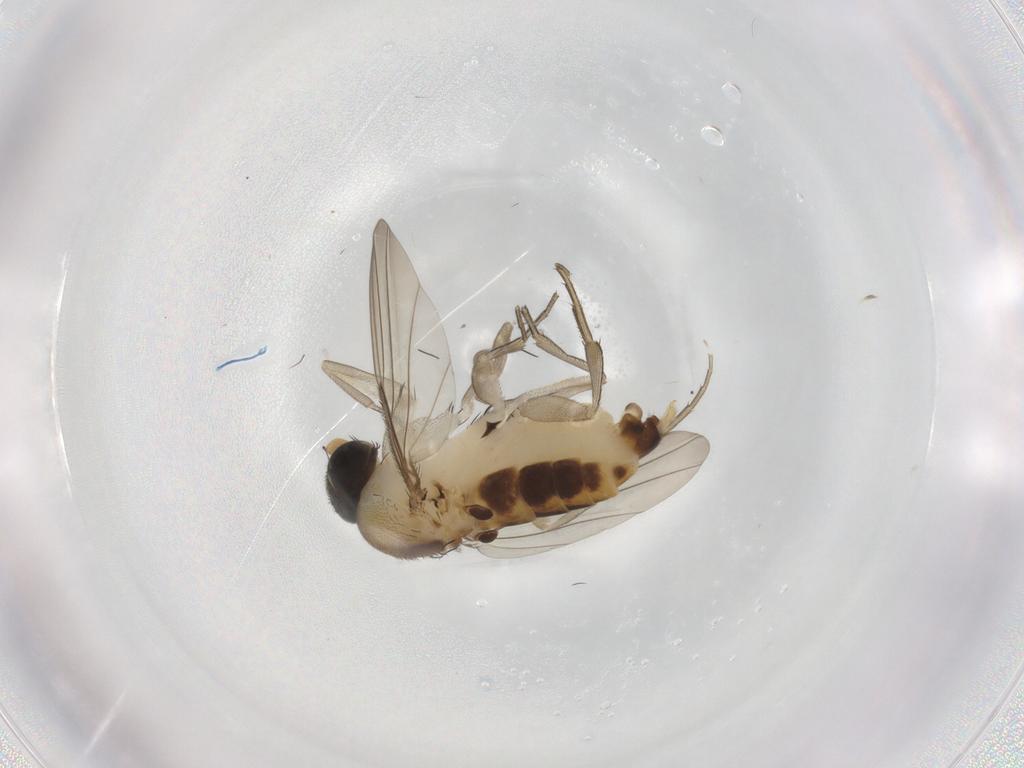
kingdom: Animalia
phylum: Arthropoda
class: Insecta
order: Diptera
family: Phoridae
